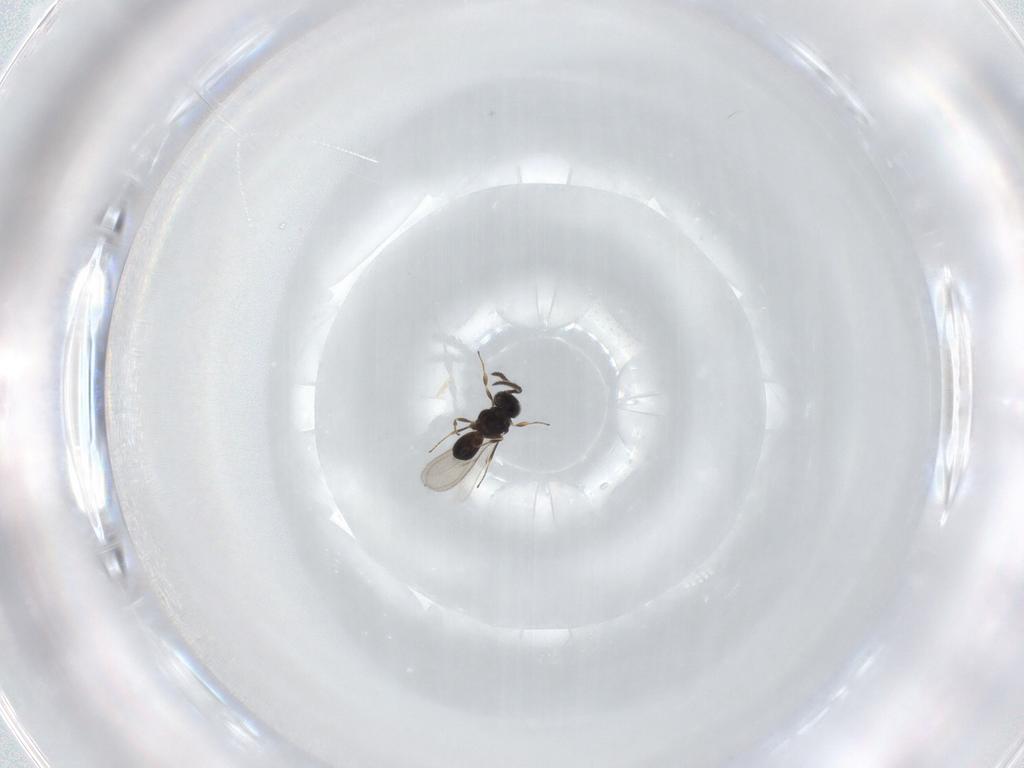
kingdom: Animalia
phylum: Arthropoda
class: Insecta
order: Hymenoptera
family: Scelionidae
